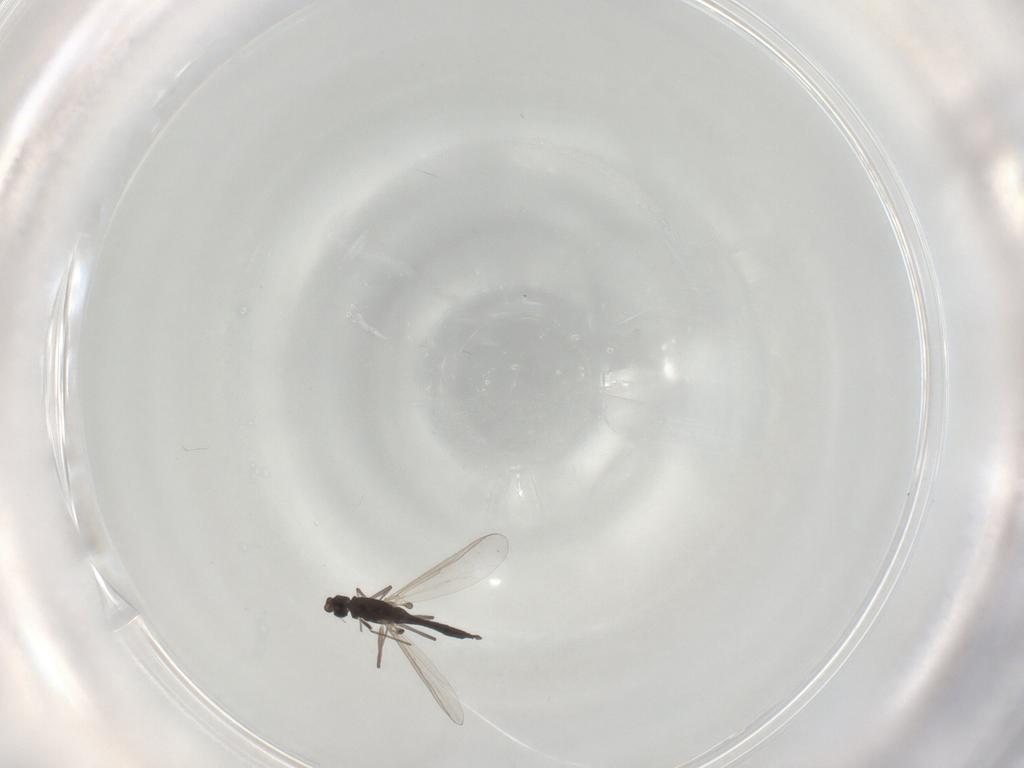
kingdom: Animalia
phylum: Arthropoda
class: Insecta
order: Diptera
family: Chironomidae
